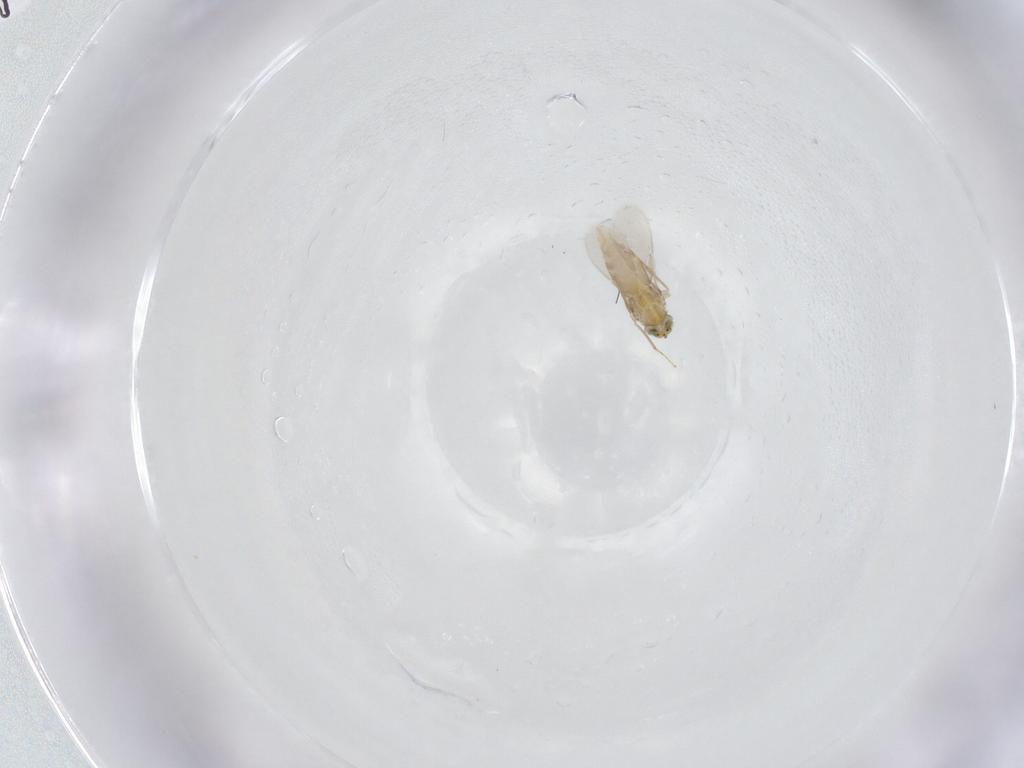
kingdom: Animalia
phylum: Arthropoda
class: Insecta
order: Hymenoptera
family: Aphelinidae
